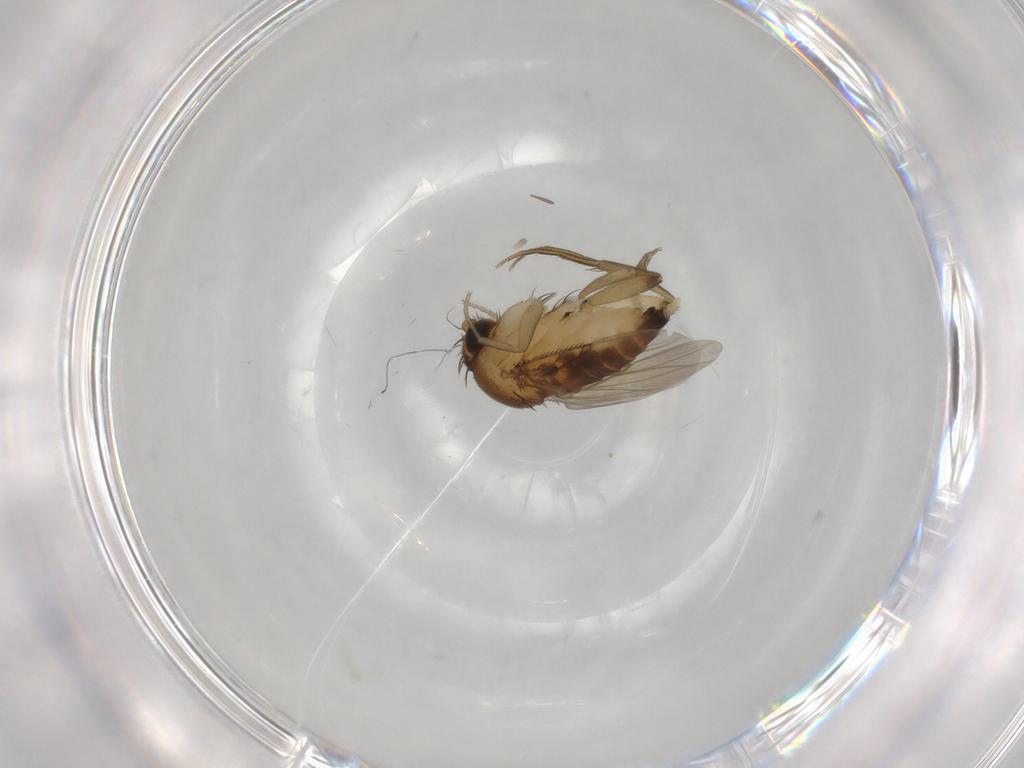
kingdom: Animalia
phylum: Arthropoda
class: Insecta
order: Diptera
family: Phoridae
